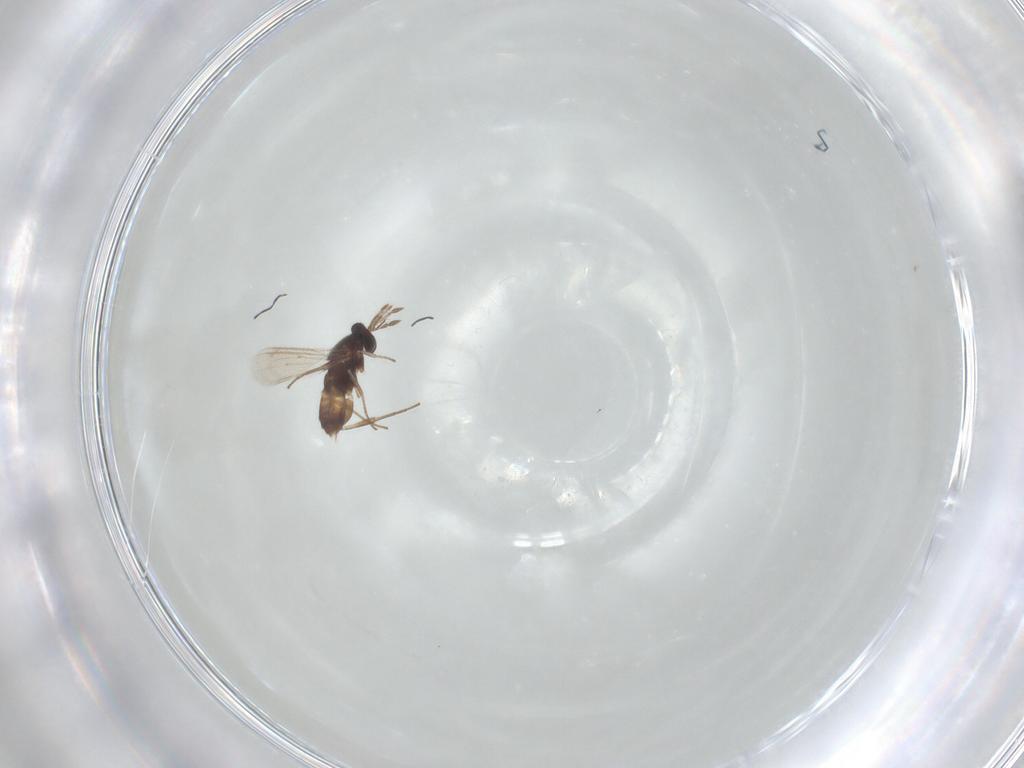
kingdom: Animalia
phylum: Arthropoda
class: Insecta
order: Hymenoptera
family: Eulophidae
